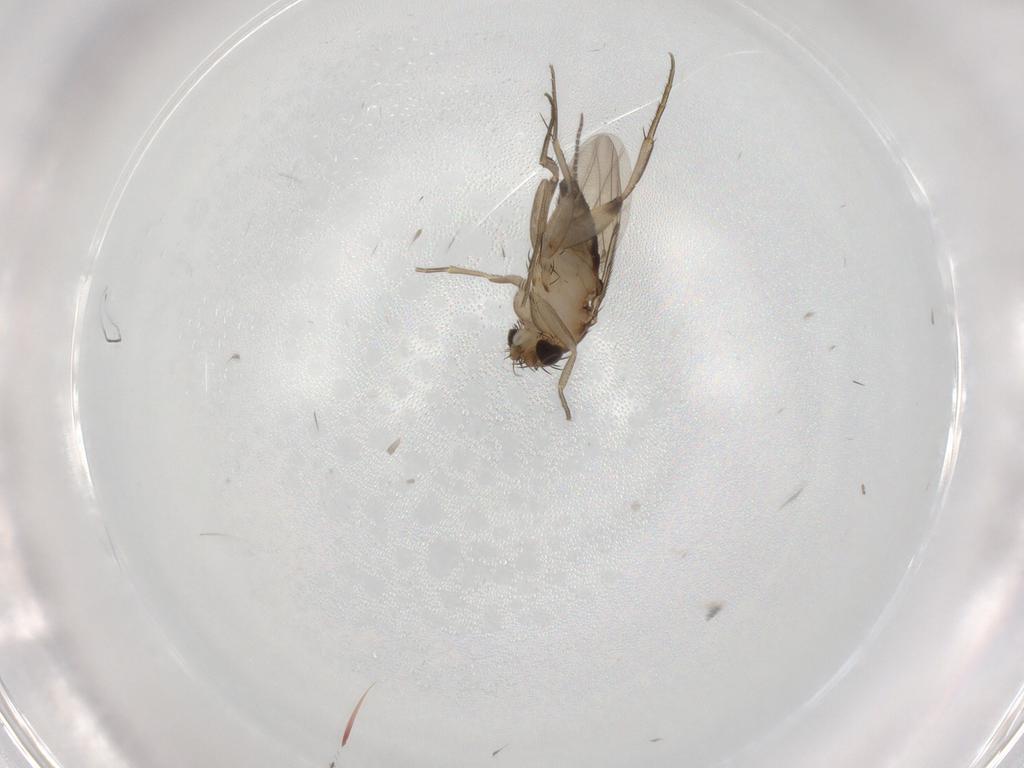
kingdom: Animalia
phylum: Arthropoda
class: Insecta
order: Diptera
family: Sciaridae
